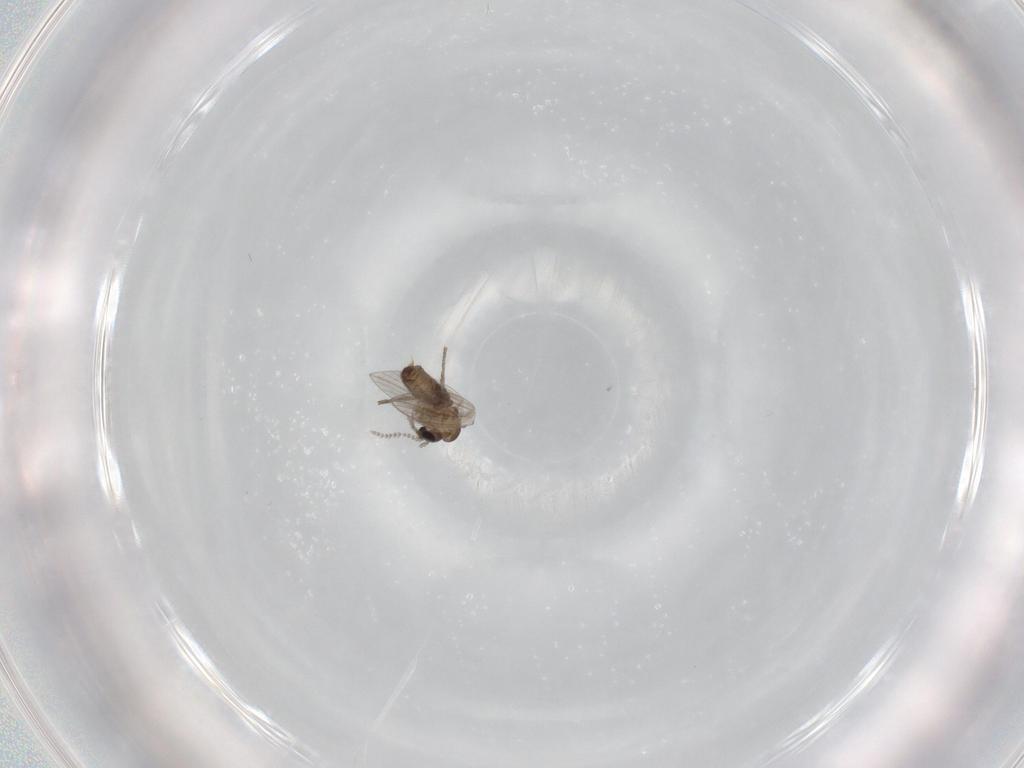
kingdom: Animalia
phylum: Arthropoda
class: Insecta
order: Diptera
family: Psychodidae
